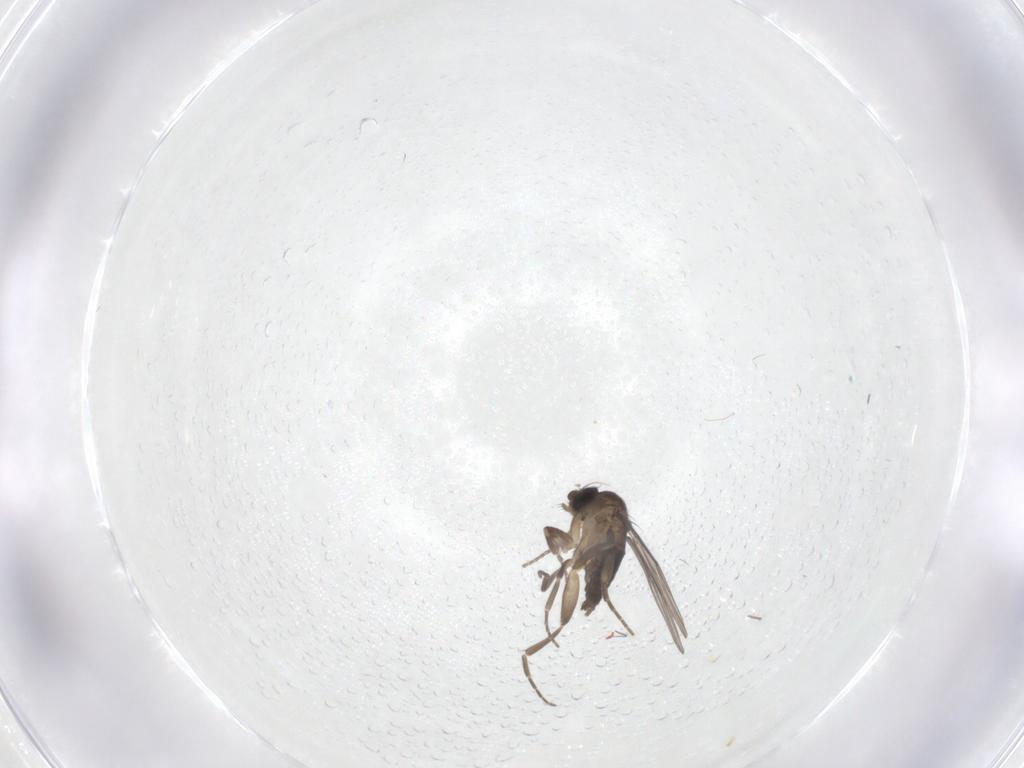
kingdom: Animalia
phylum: Arthropoda
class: Insecta
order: Diptera
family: Chironomidae
